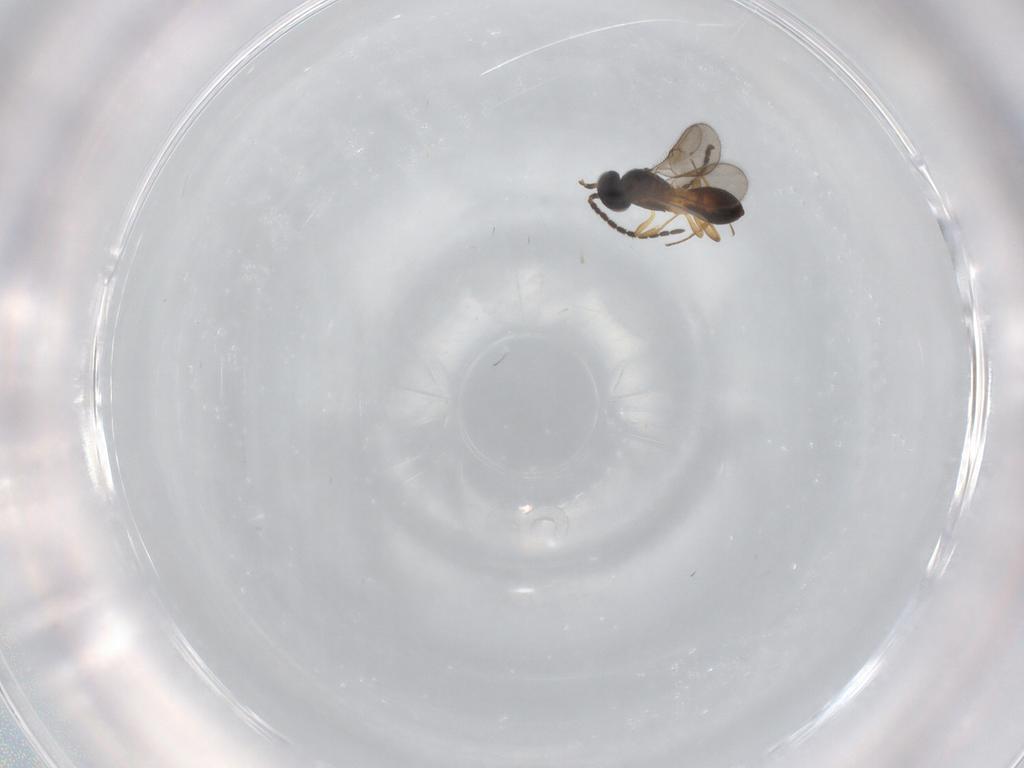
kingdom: Animalia
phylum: Arthropoda
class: Insecta
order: Hymenoptera
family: Scelionidae
